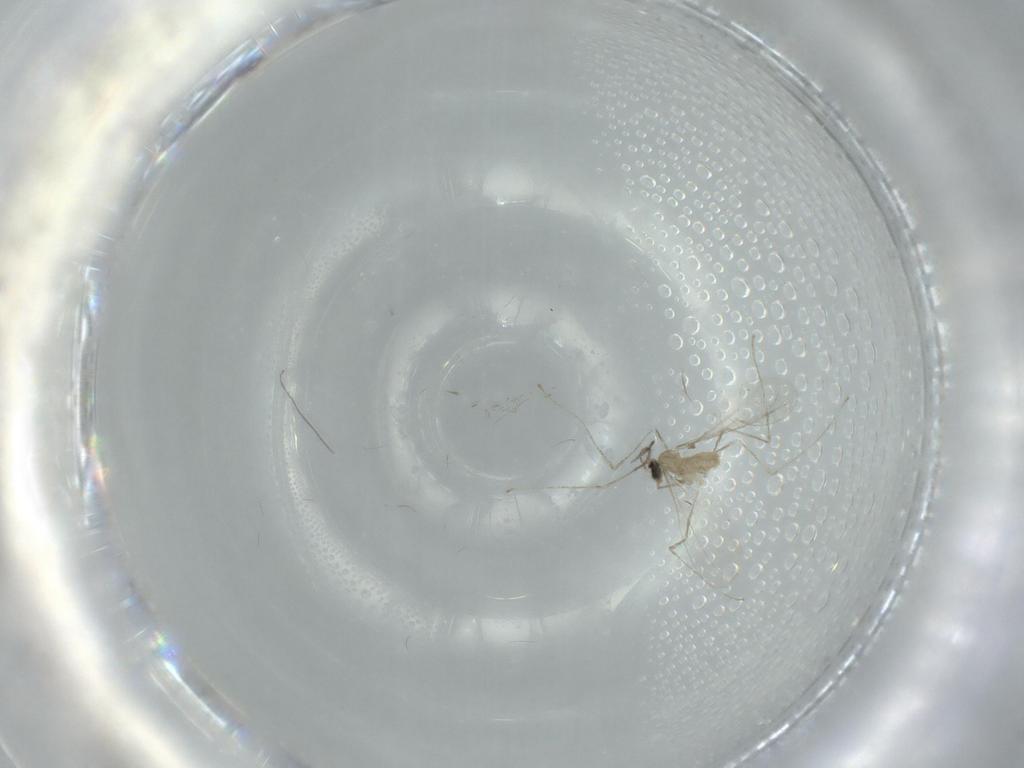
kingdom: Animalia
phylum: Arthropoda
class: Insecta
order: Diptera
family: Cecidomyiidae
